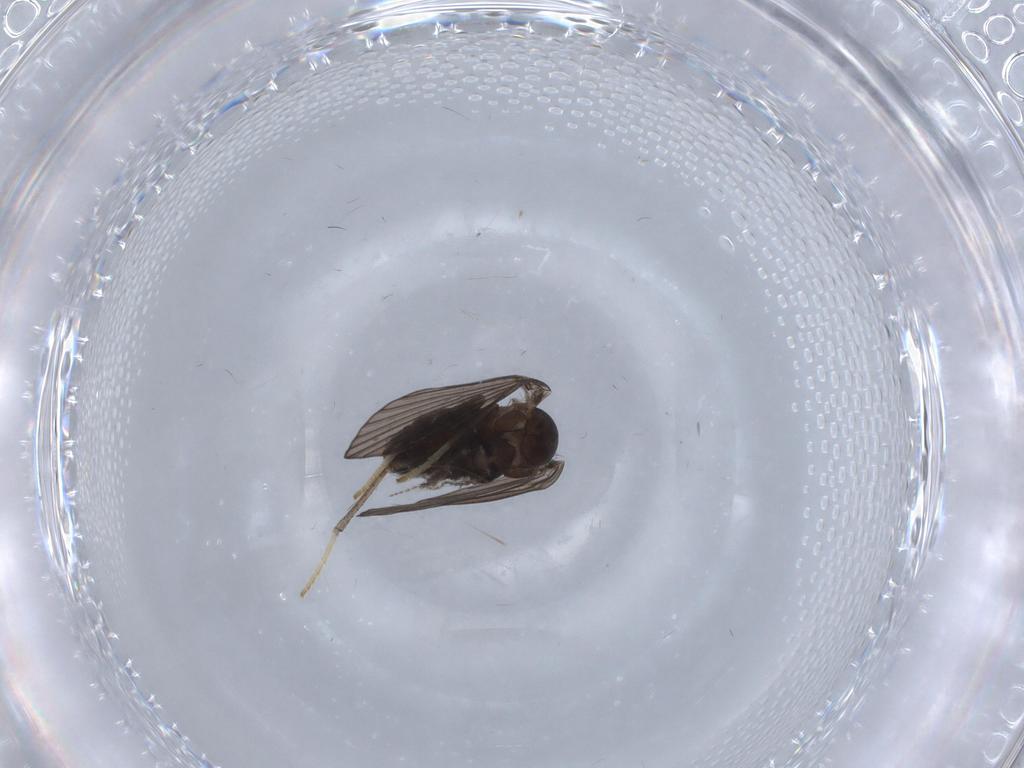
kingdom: Animalia
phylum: Arthropoda
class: Insecta
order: Diptera
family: Psychodidae
